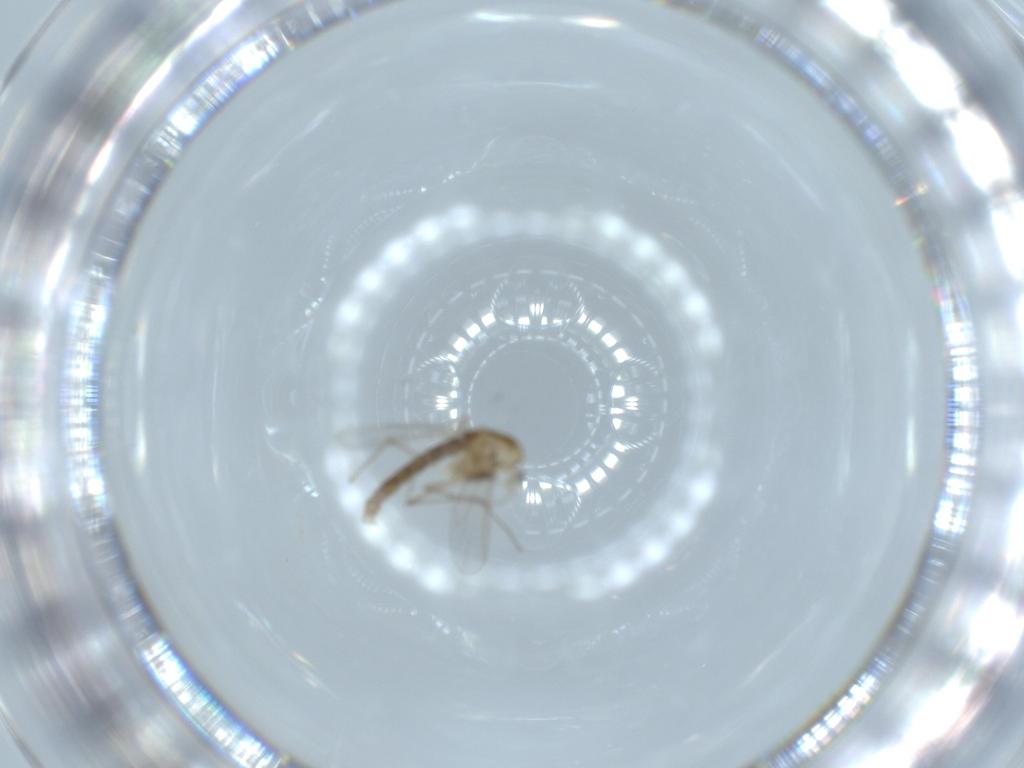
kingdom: Animalia
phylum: Arthropoda
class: Insecta
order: Diptera
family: Chironomidae
